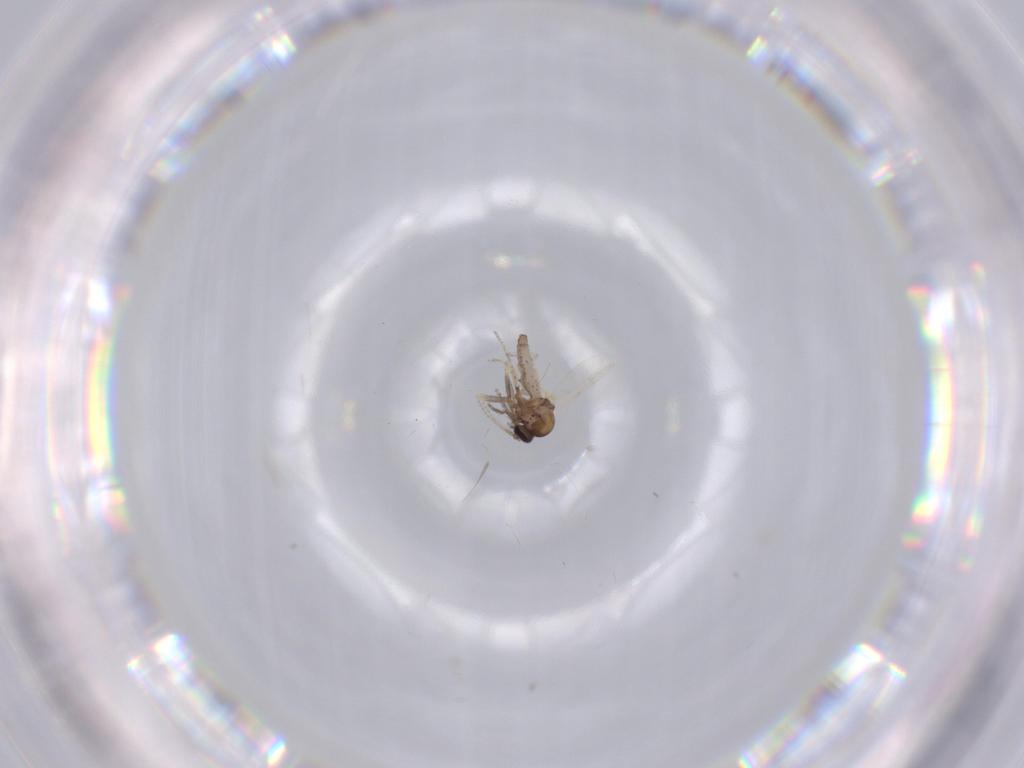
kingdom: Animalia
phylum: Arthropoda
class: Insecta
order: Diptera
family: Ceratopogonidae
